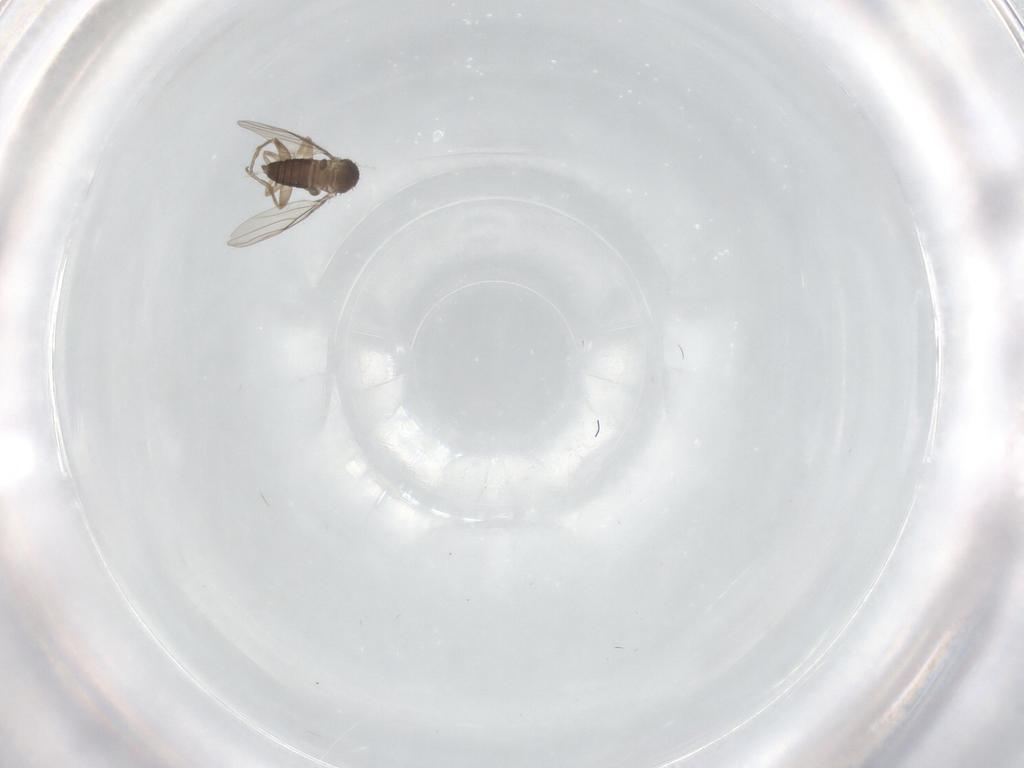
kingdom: Animalia
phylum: Arthropoda
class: Insecta
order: Diptera
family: Phoridae
